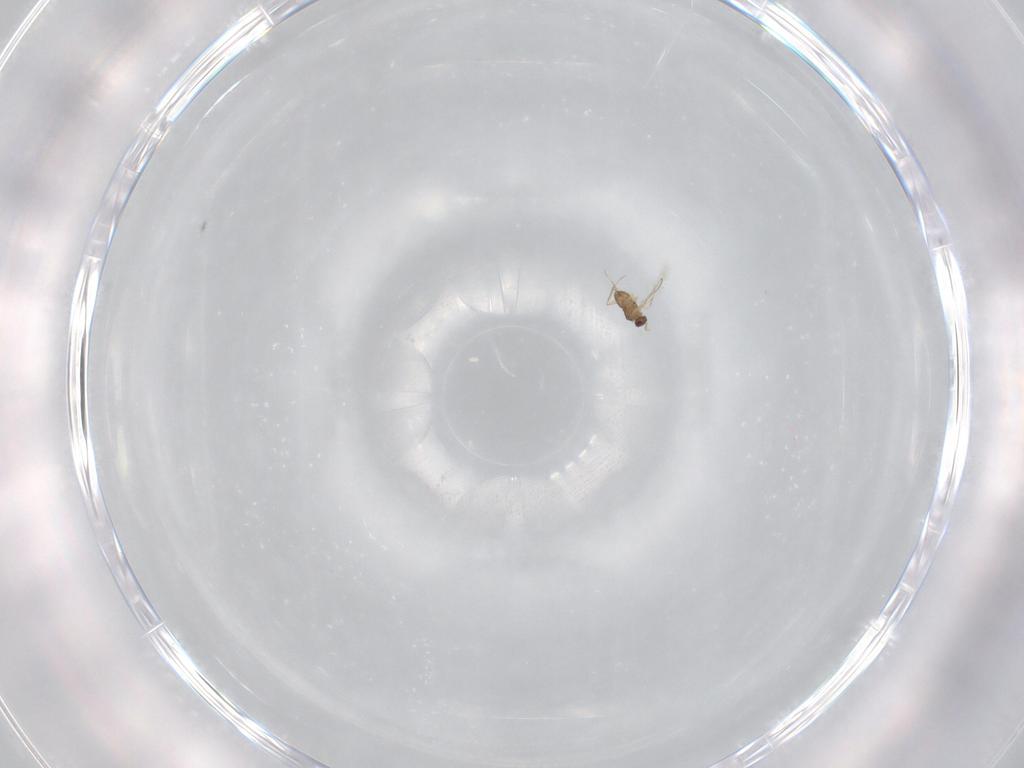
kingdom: Animalia
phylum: Arthropoda
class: Insecta
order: Hymenoptera
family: Mymaridae
